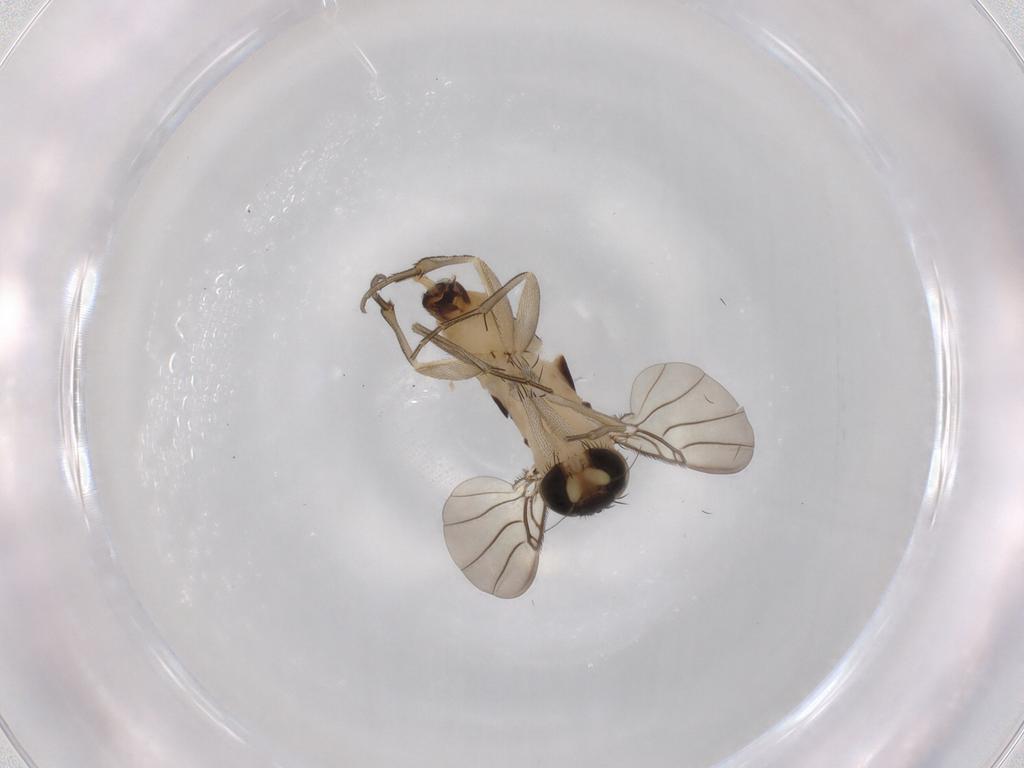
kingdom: Animalia
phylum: Arthropoda
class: Insecta
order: Diptera
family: Phoridae
